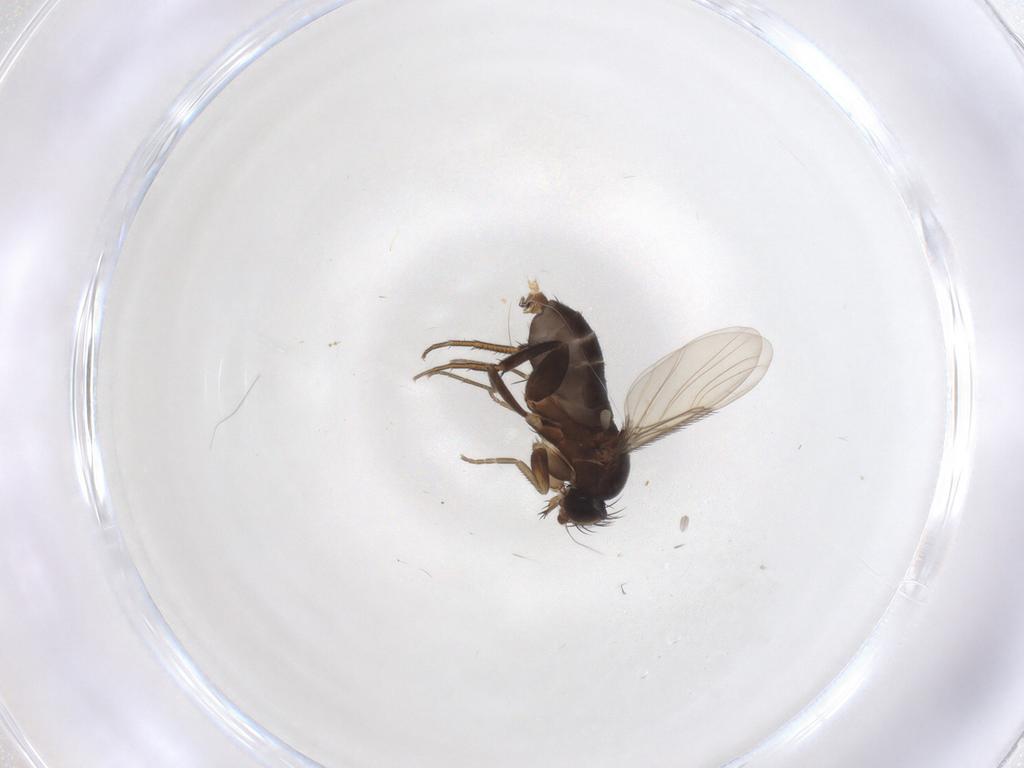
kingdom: Animalia
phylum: Arthropoda
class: Insecta
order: Diptera
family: Phoridae
